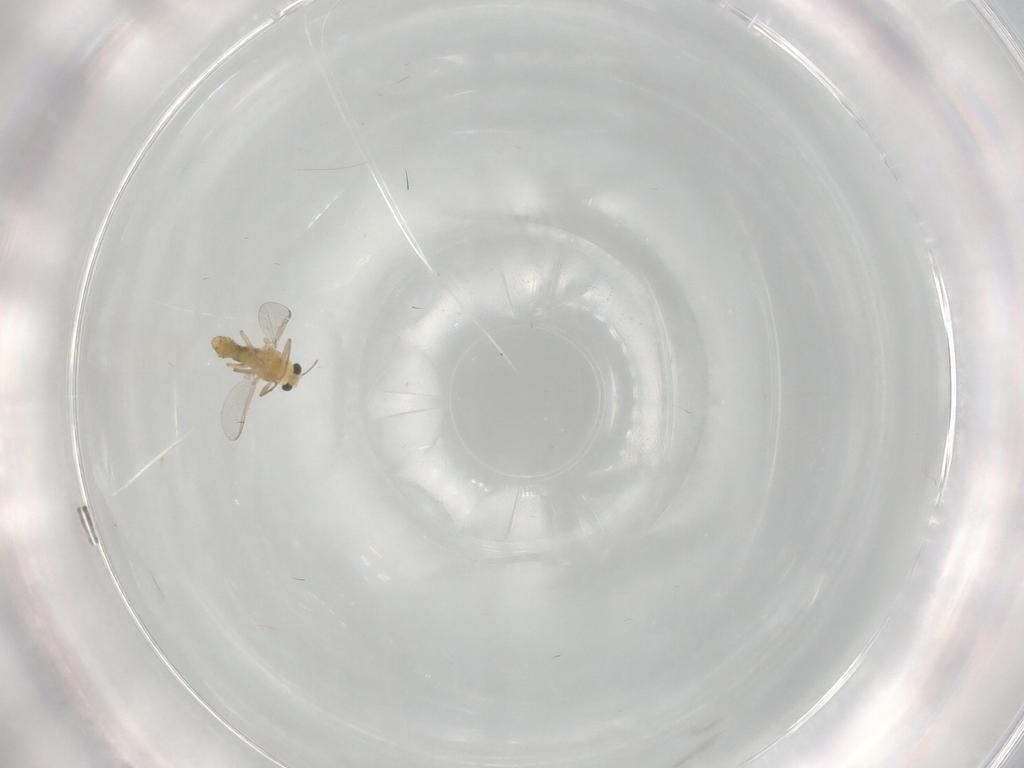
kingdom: Animalia
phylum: Arthropoda
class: Insecta
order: Diptera
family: Chironomidae
